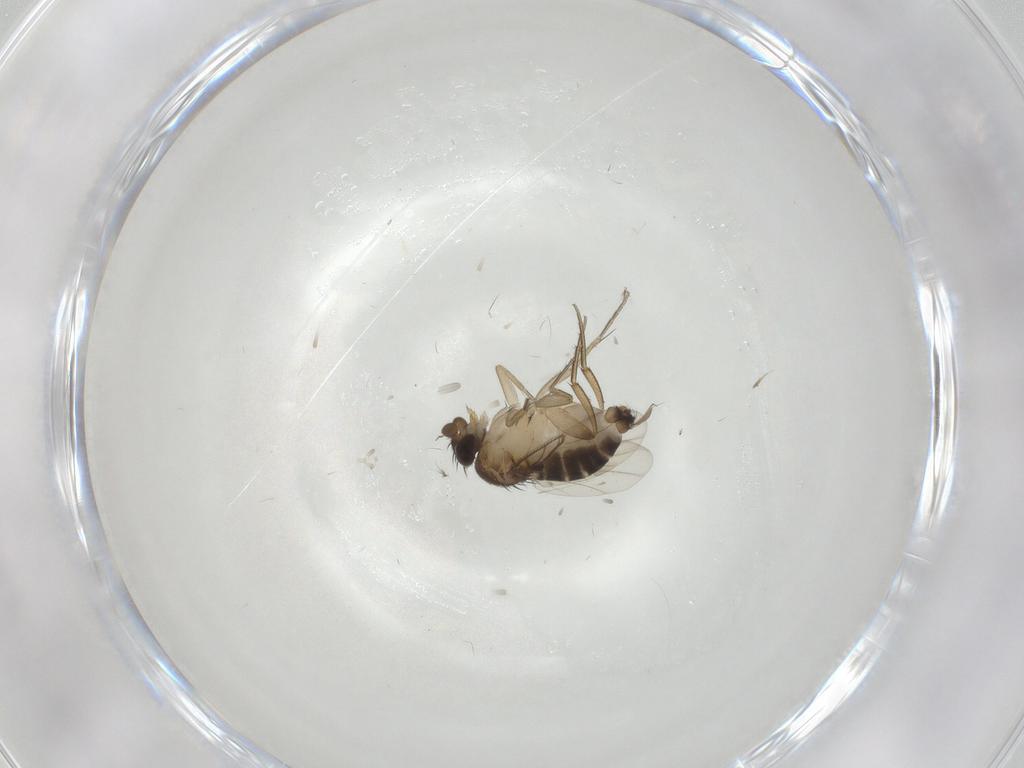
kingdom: Animalia
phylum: Arthropoda
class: Insecta
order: Diptera
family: Phoridae
